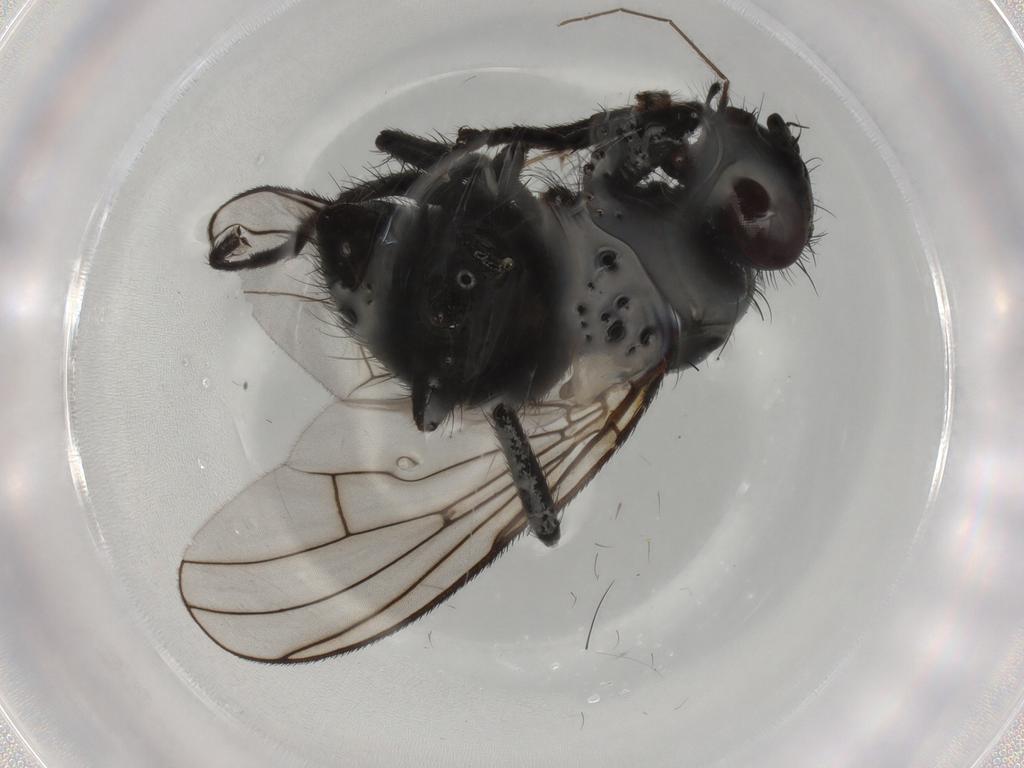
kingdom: Animalia
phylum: Arthropoda
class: Insecta
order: Diptera
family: Muscidae
